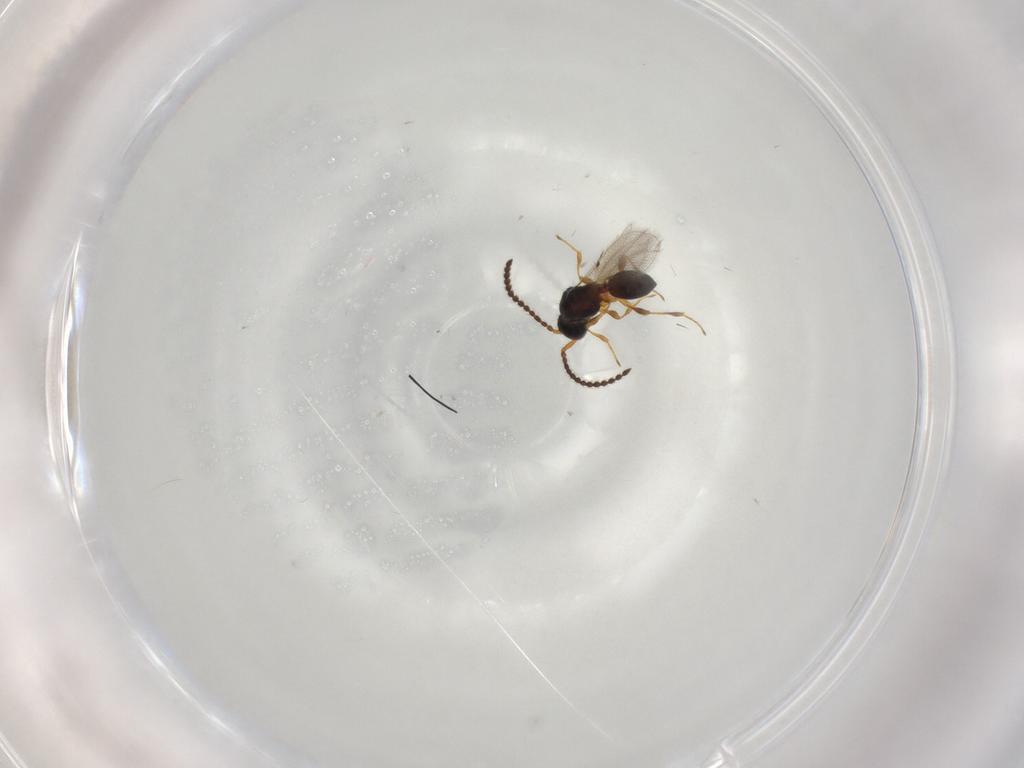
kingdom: Animalia
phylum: Arthropoda
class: Insecta
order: Hymenoptera
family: Diapriidae
